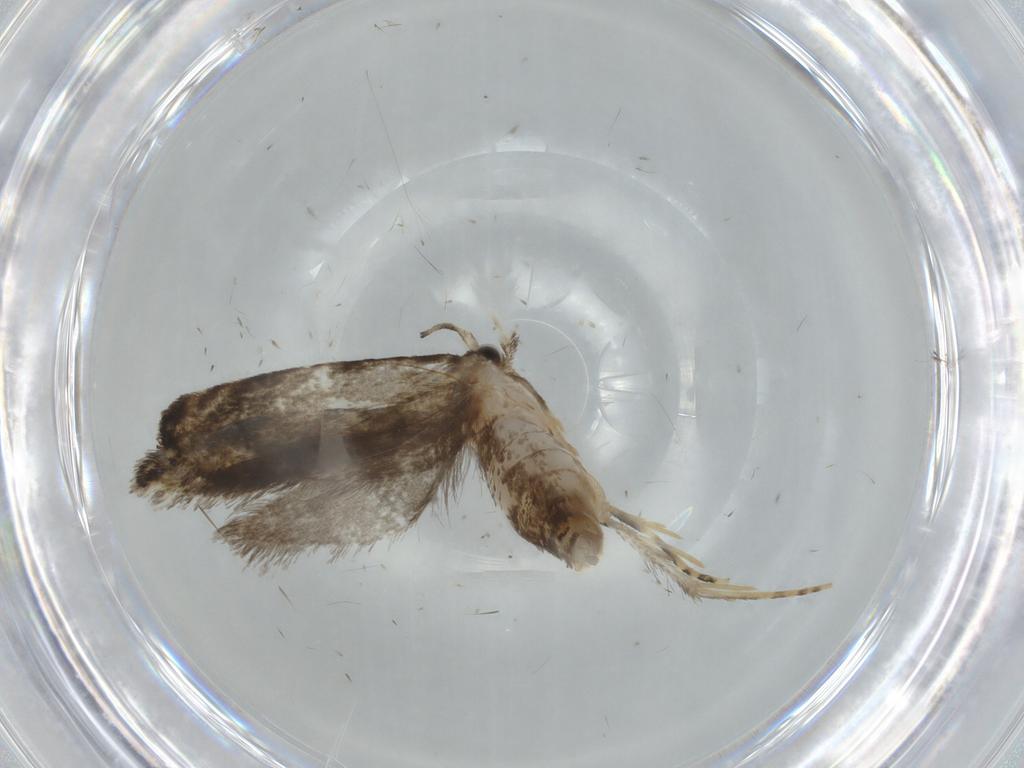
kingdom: Animalia
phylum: Arthropoda
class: Insecta
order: Lepidoptera
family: Tineidae
